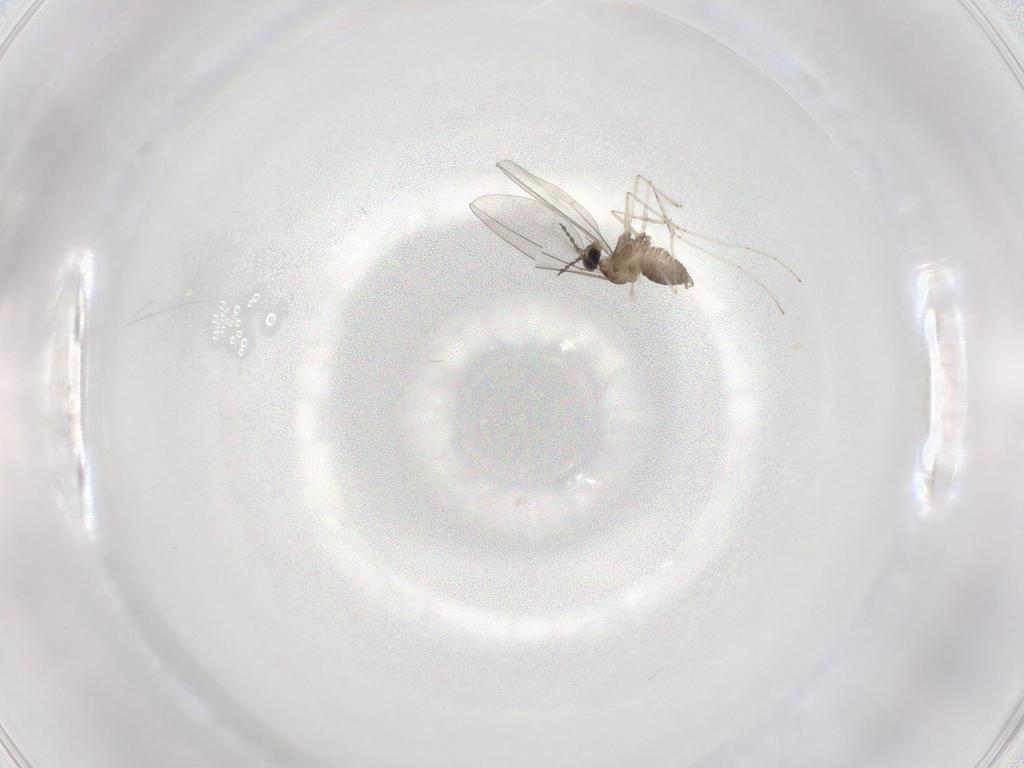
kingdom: Animalia
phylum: Arthropoda
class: Insecta
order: Diptera
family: Cecidomyiidae
